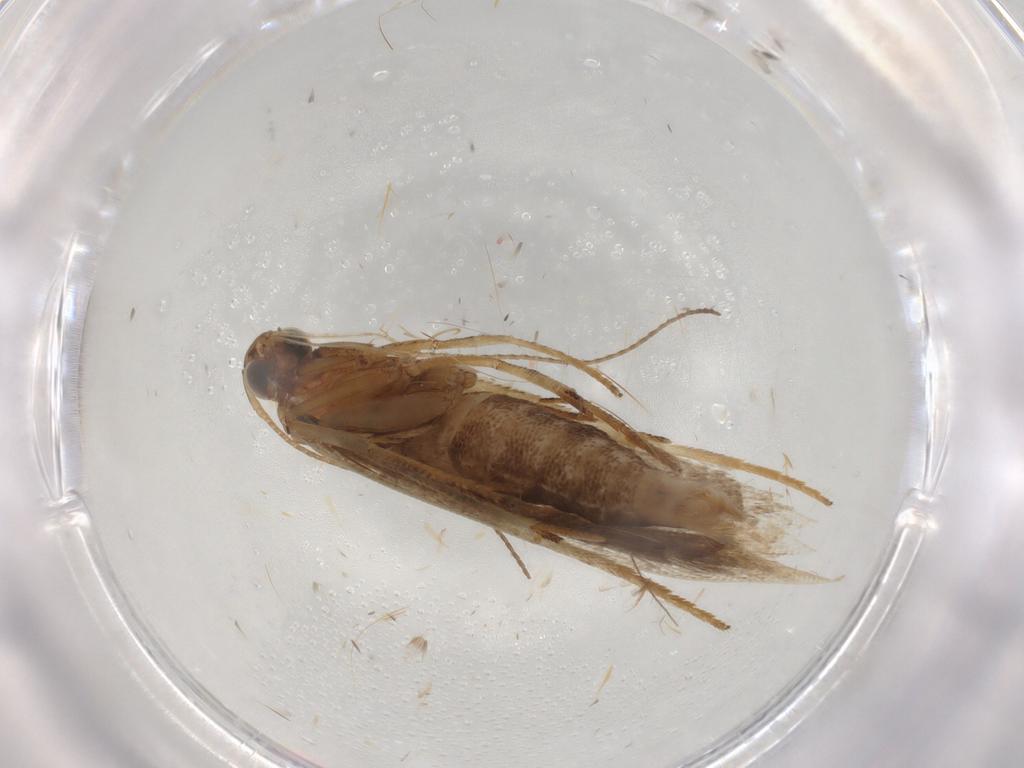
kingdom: Animalia
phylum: Arthropoda
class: Insecta
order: Lepidoptera
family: Gelechiidae
